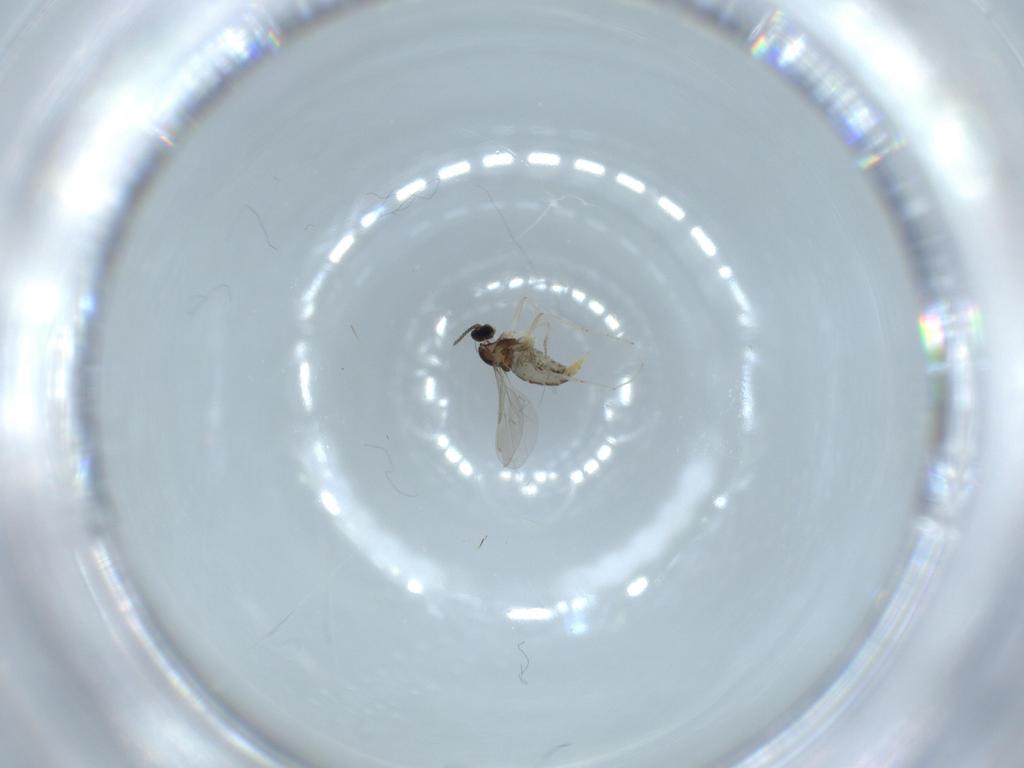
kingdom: Animalia
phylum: Arthropoda
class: Insecta
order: Diptera
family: Cecidomyiidae
